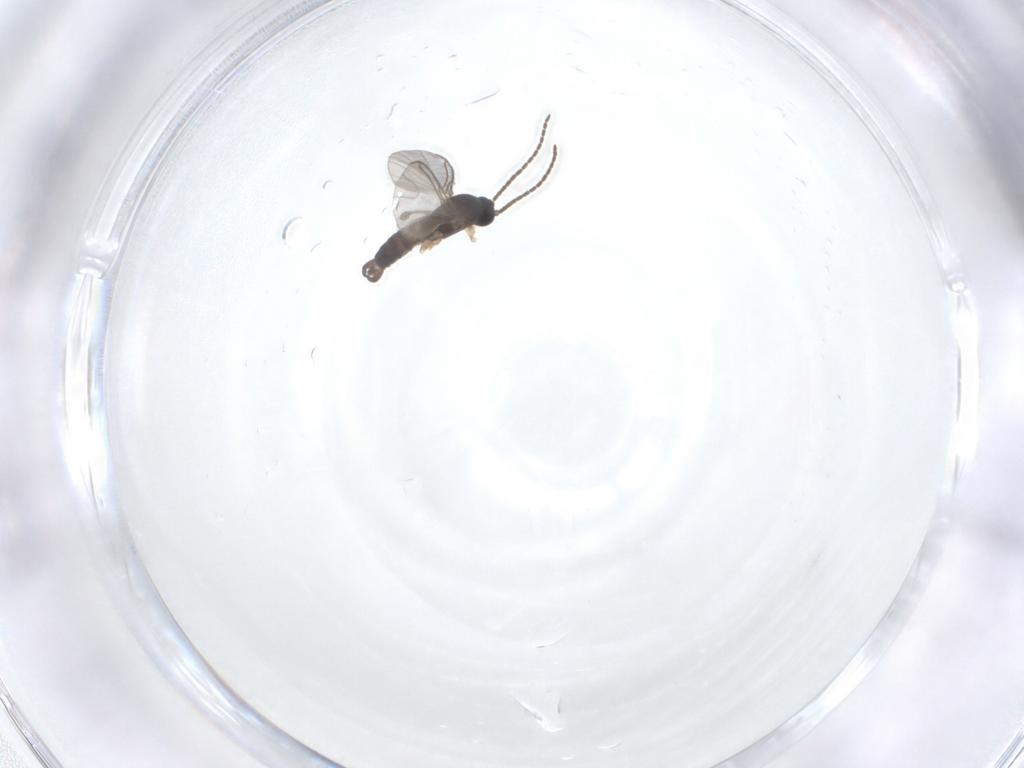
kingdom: Animalia
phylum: Arthropoda
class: Insecta
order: Diptera
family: Sciaridae
